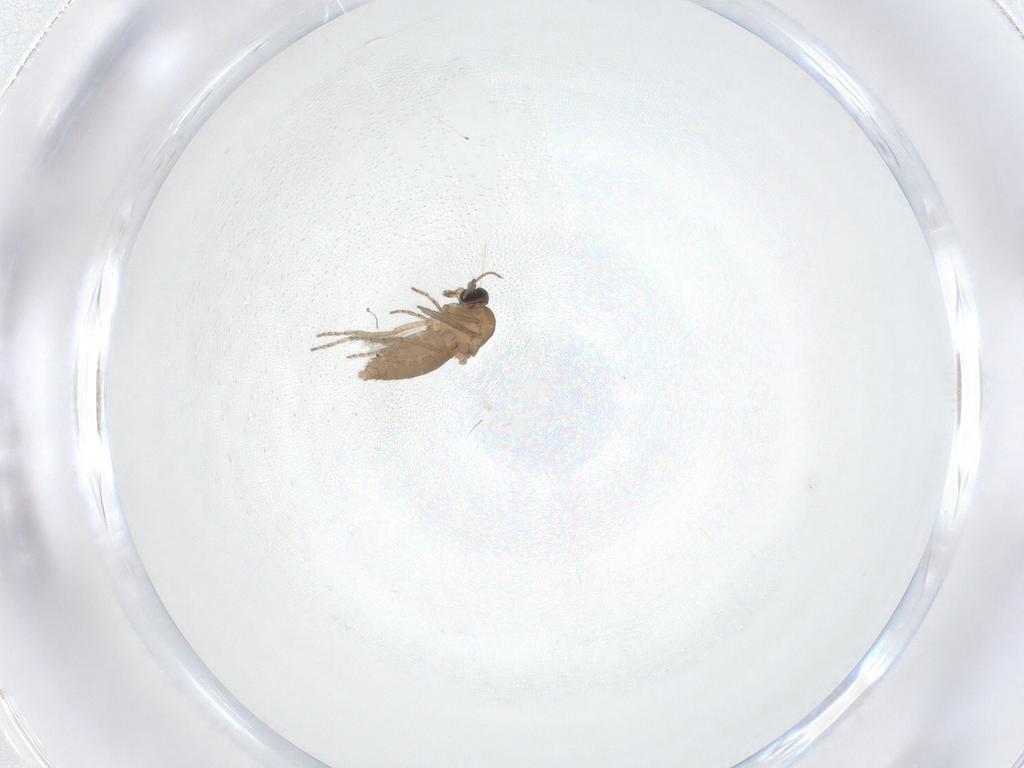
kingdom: Animalia
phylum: Arthropoda
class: Insecta
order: Diptera
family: Ceratopogonidae
